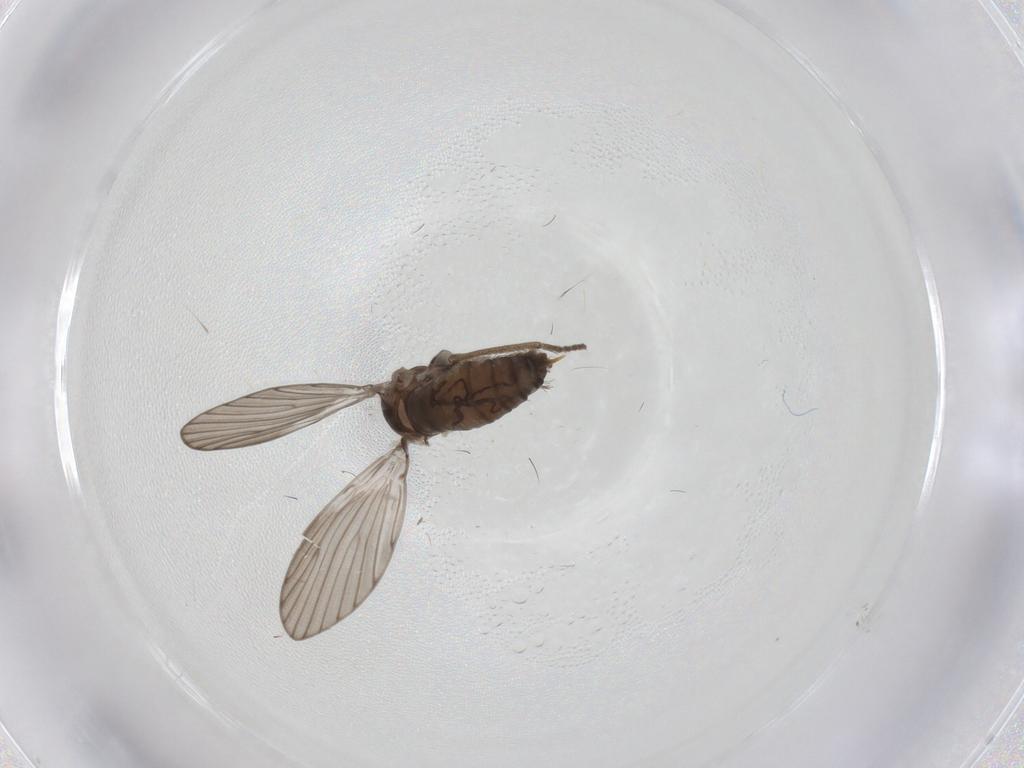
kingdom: Animalia
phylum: Arthropoda
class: Insecta
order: Diptera
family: Psychodidae
